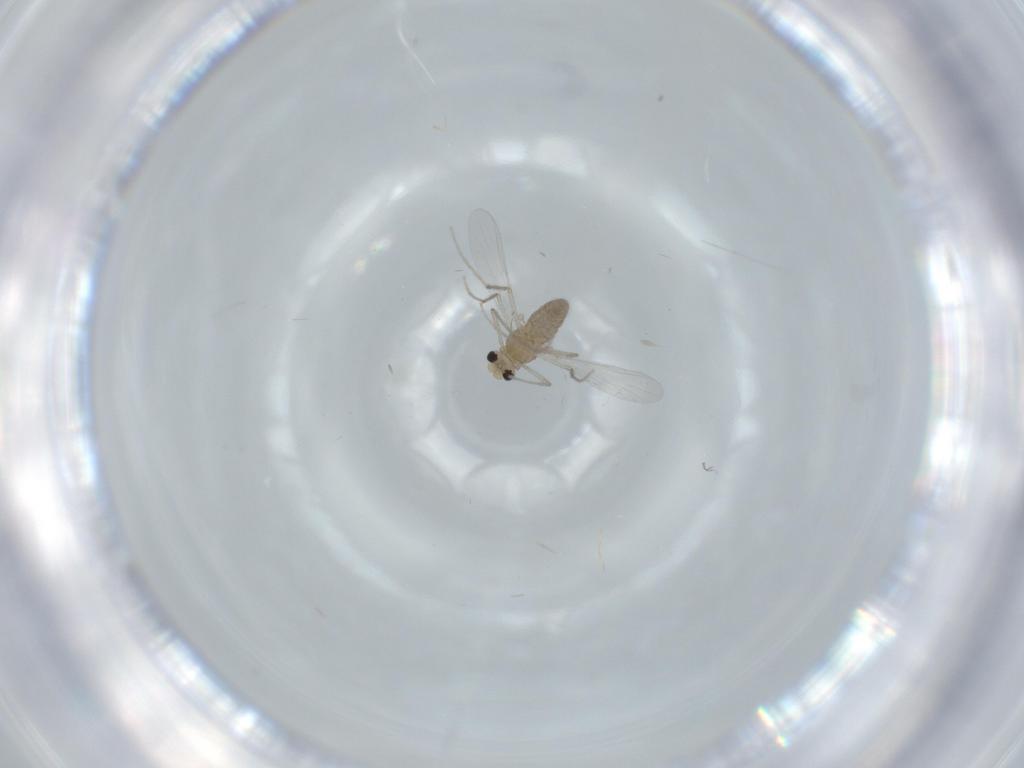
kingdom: Animalia
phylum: Arthropoda
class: Insecta
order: Diptera
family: Chironomidae
